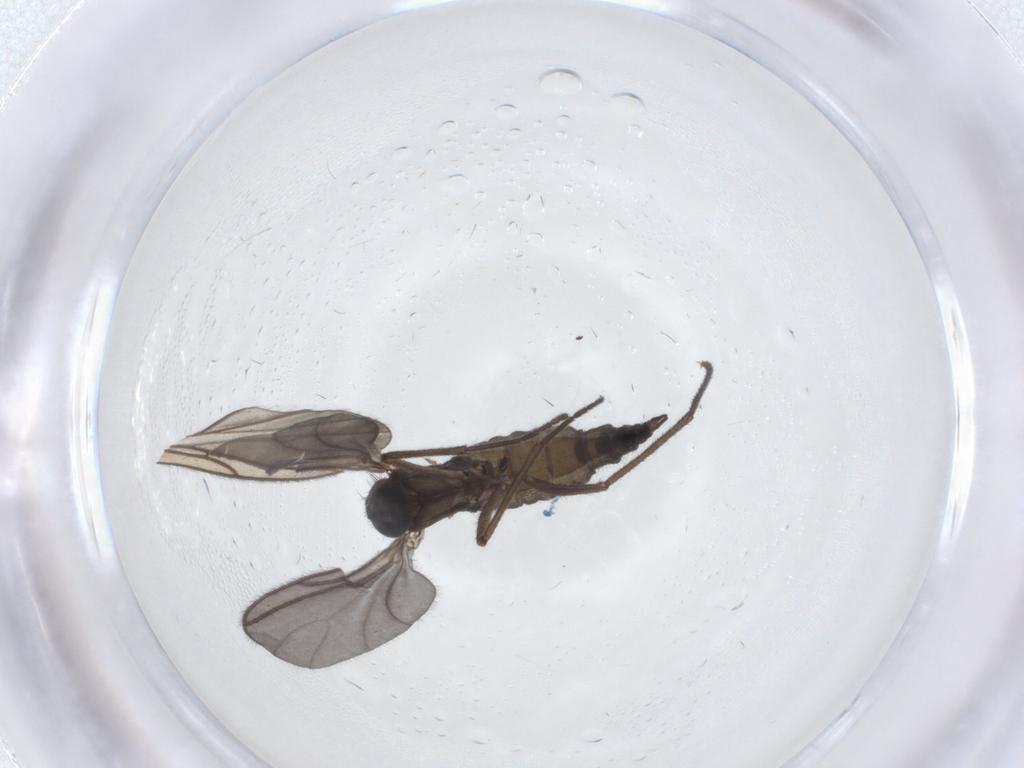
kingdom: Animalia
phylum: Arthropoda
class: Insecta
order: Diptera
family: Sciaridae
